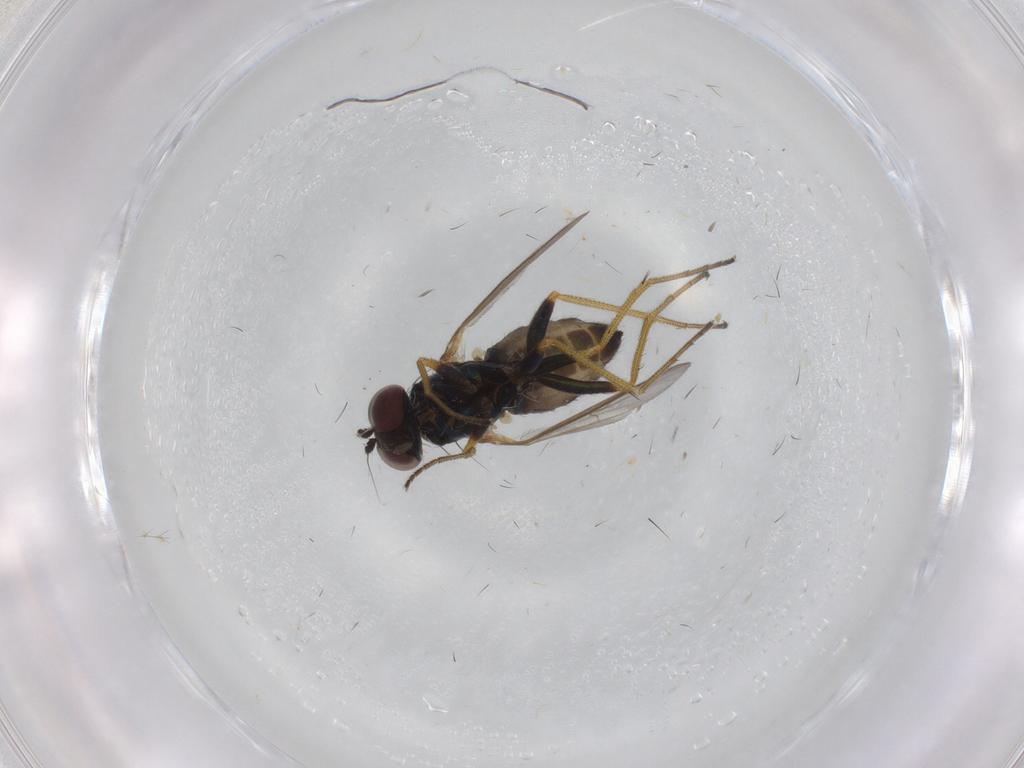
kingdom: Animalia
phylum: Arthropoda
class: Insecta
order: Diptera
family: Dolichopodidae
